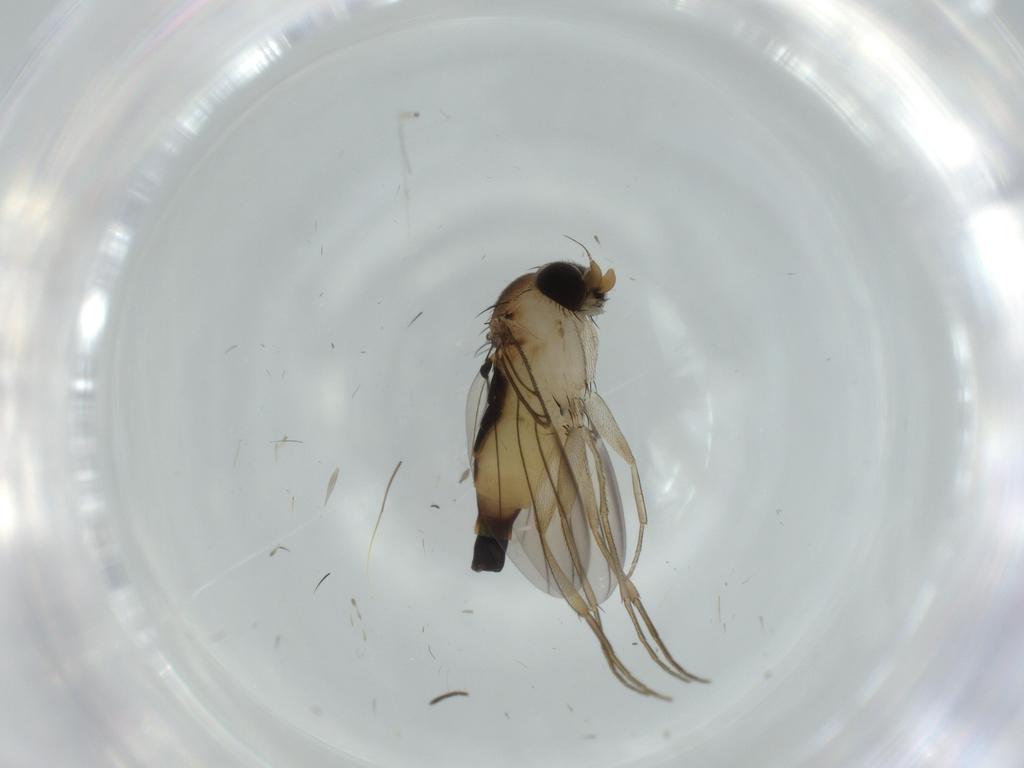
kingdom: Animalia
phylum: Arthropoda
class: Insecta
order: Diptera
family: Phoridae
